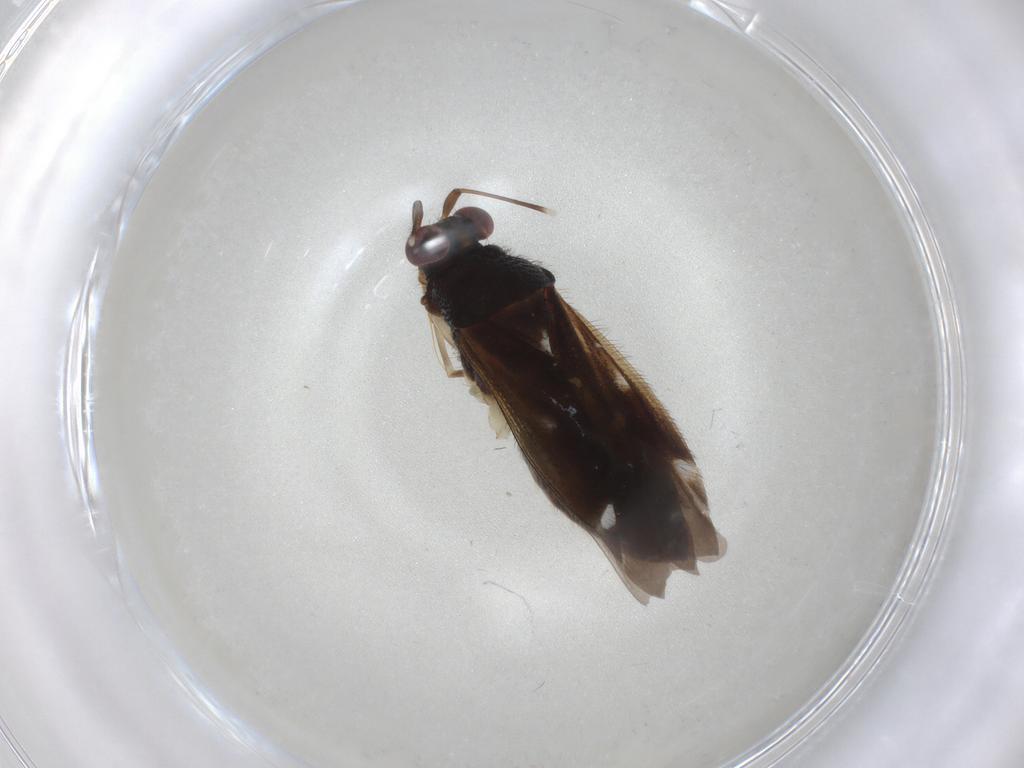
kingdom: Animalia
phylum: Arthropoda
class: Insecta
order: Hemiptera
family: Miridae
